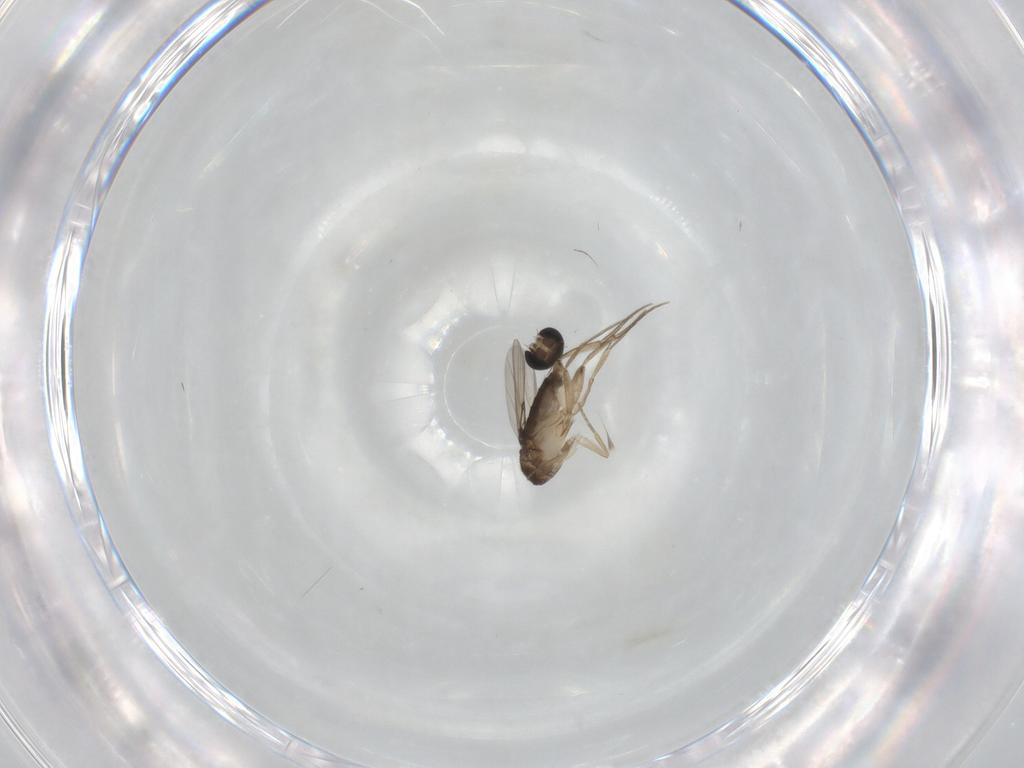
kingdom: Animalia
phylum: Arthropoda
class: Insecta
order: Diptera
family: Phoridae
